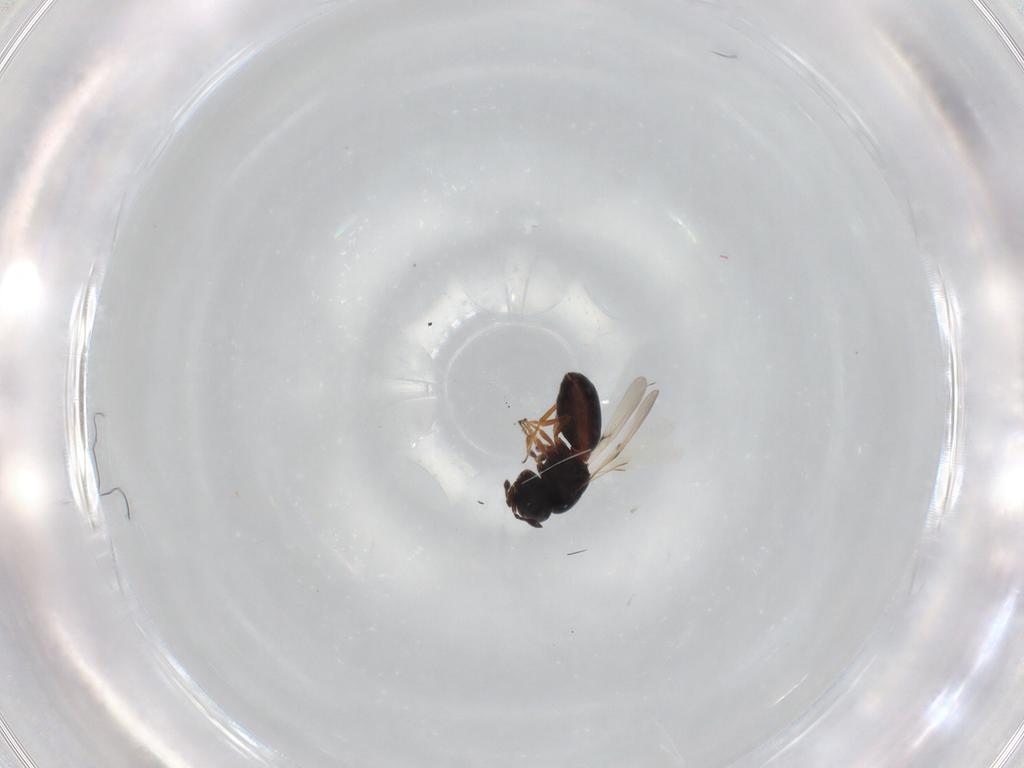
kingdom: Animalia
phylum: Arthropoda
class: Insecta
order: Hymenoptera
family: Scelionidae
